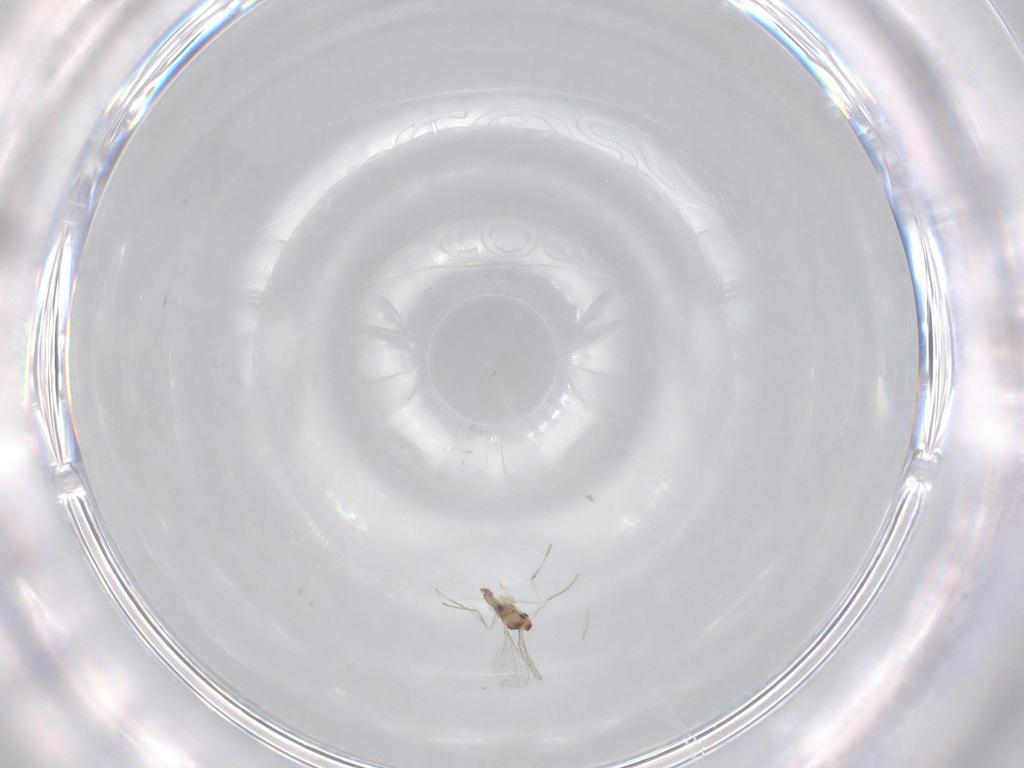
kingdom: Animalia
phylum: Arthropoda
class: Insecta
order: Diptera
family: Cecidomyiidae
